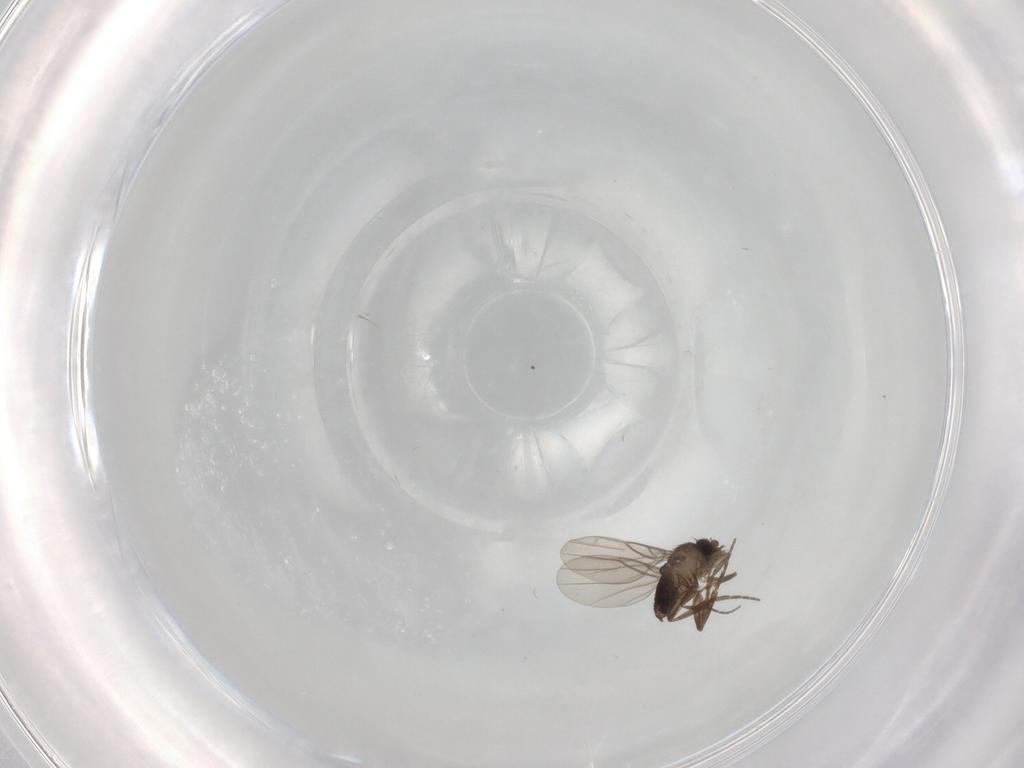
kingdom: Animalia
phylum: Arthropoda
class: Insecta
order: Diptera
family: Phoridae
